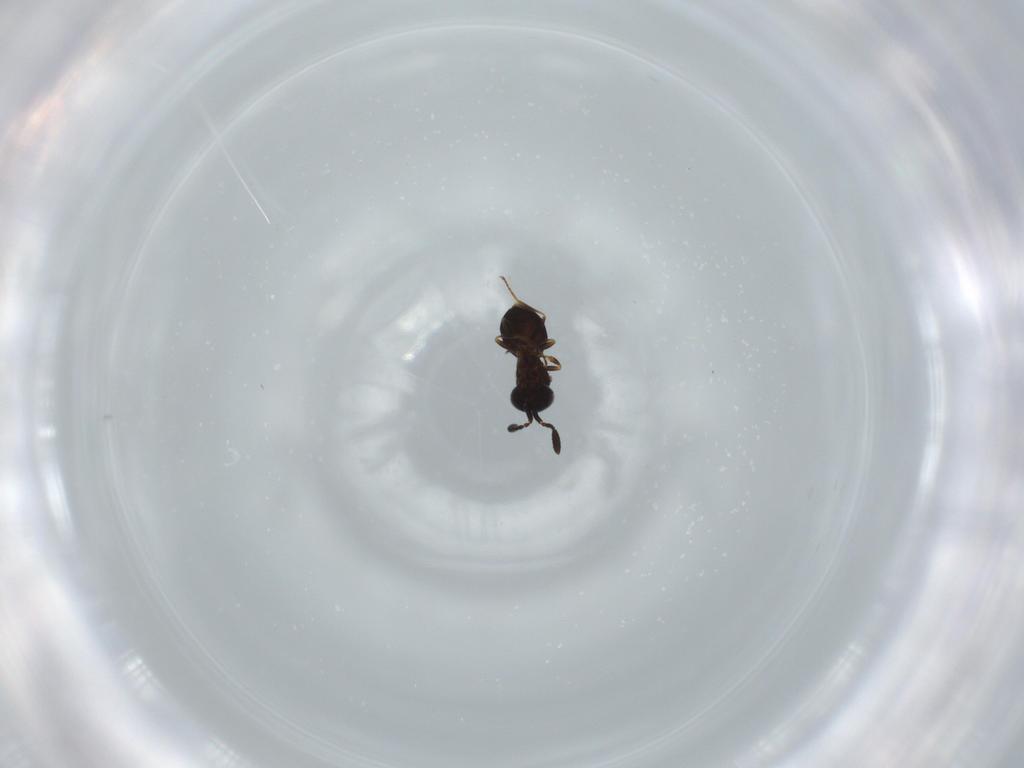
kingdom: Animalia
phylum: Arthropoda
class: Insecta
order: Hymenoptera
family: Scelionidae
